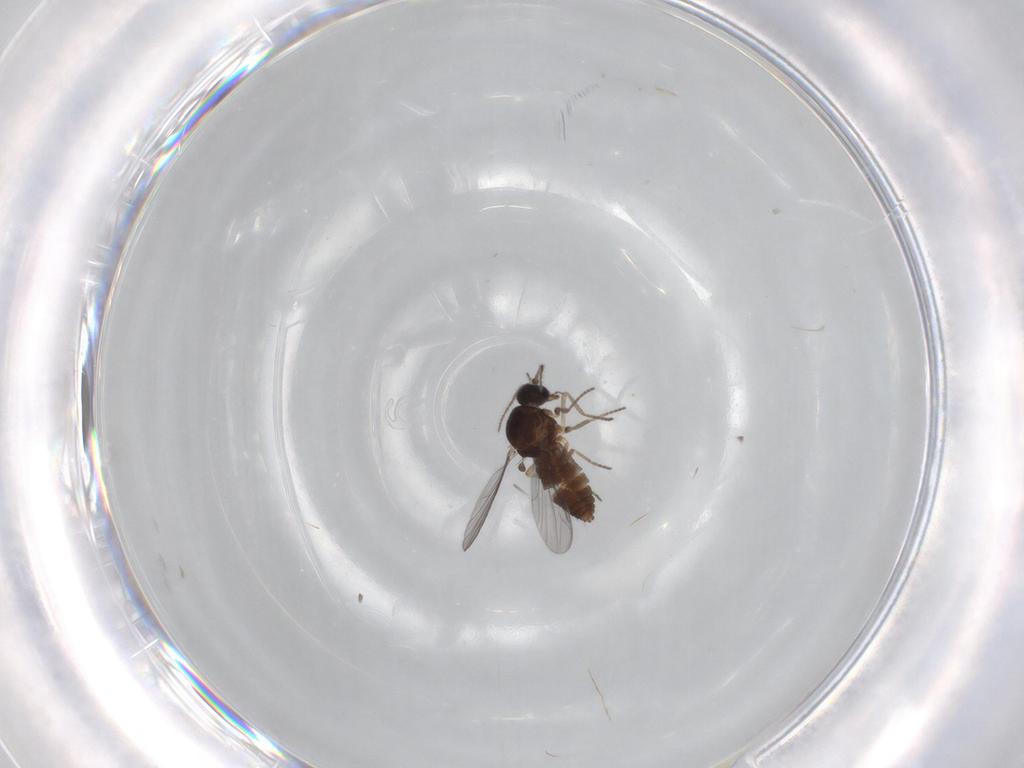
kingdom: Animalia
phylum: Arthropoda
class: Insecta
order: Diptera
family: Ceratopogonidae
